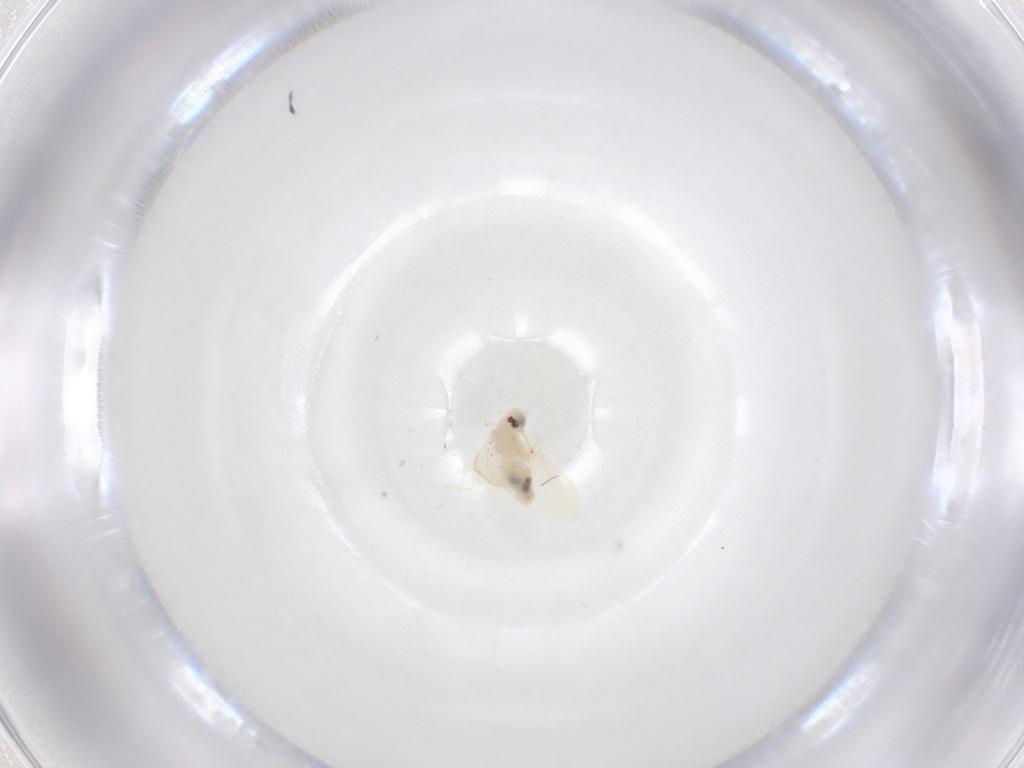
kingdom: Animalia
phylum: Arthropoda
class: Insecta
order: Hemiptera
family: Aleyrodidae
